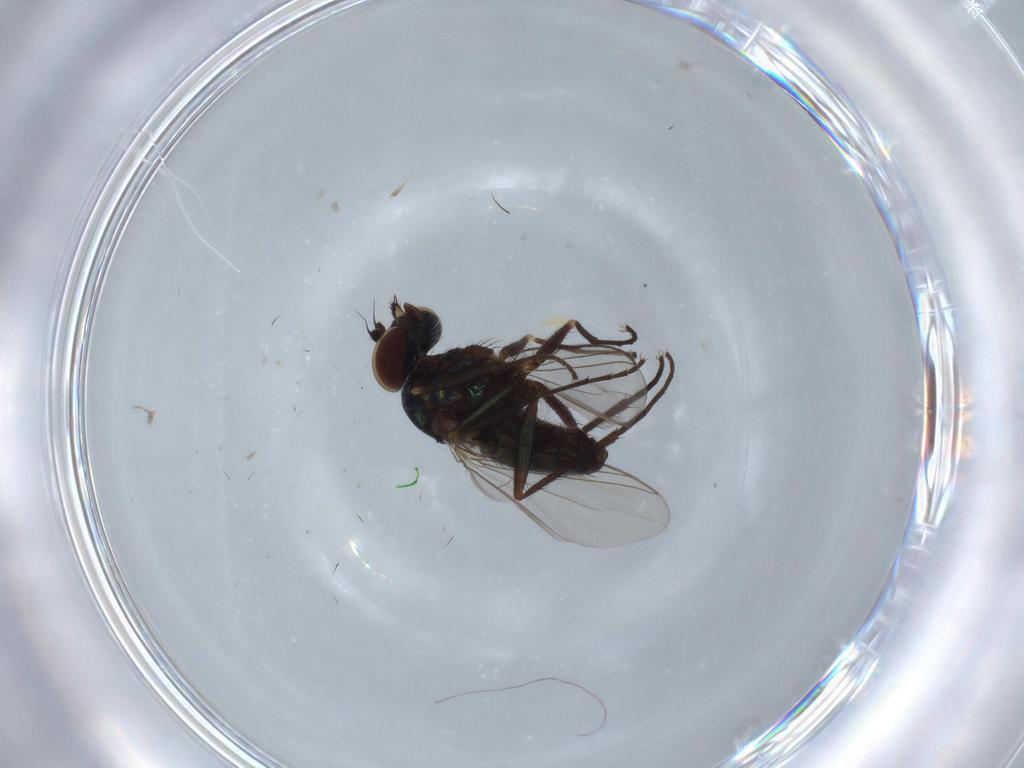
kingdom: Animalia
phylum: Arthropoda
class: Insecta
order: Diptera
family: Dolichopodidae
